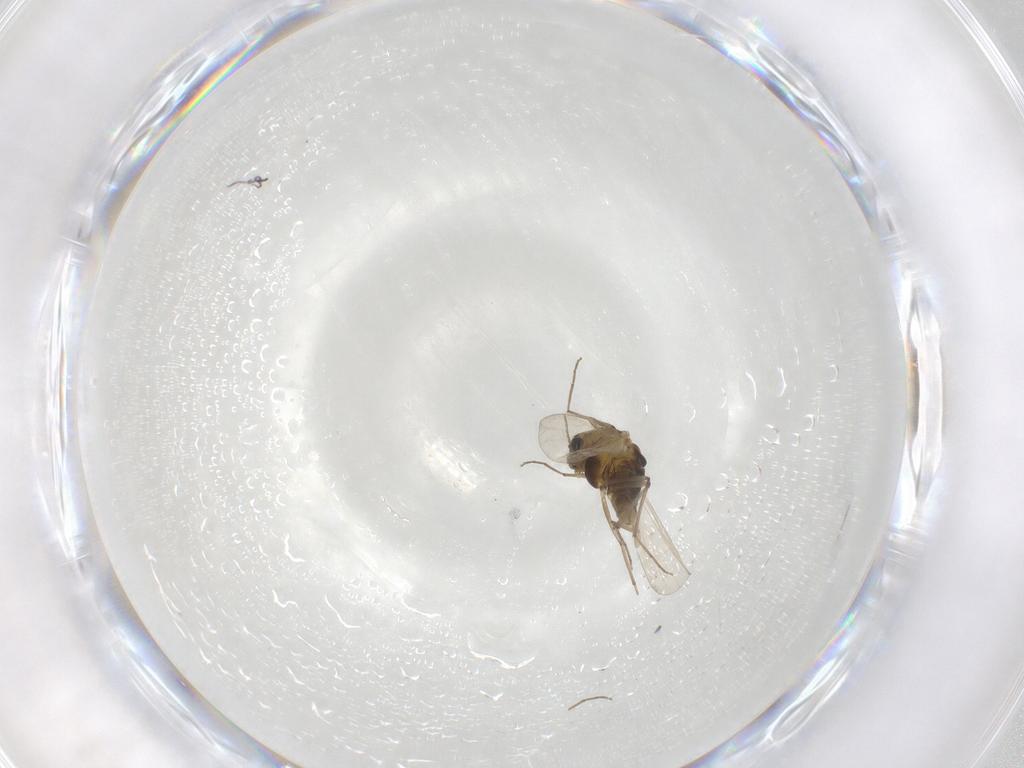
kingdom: Animalia
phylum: Arthropoda
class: Insecta
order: Diptera
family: Chironomidae
